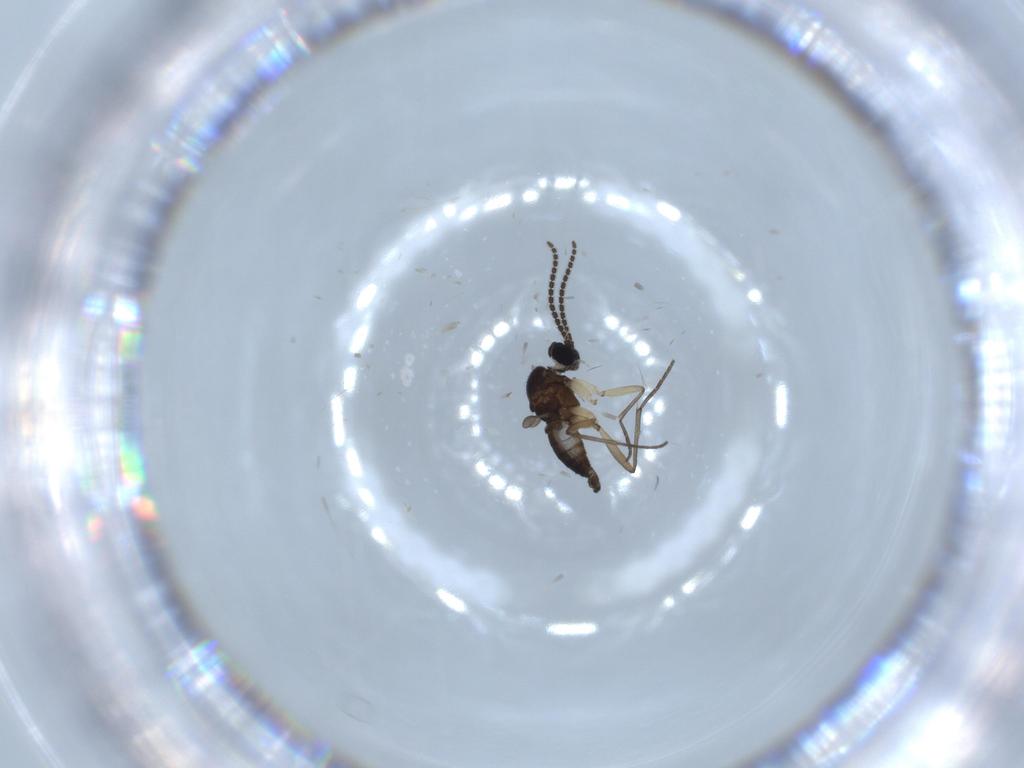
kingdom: Animalia
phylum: Arthropoda
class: Insecta
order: Diptera
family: Sciaridae
